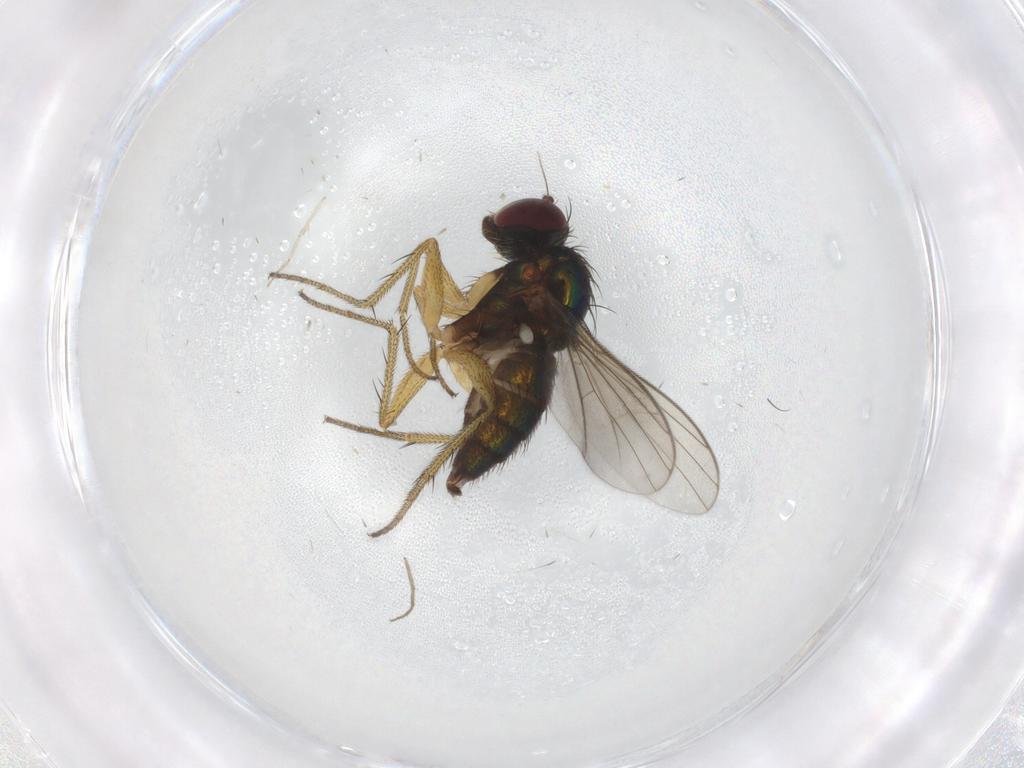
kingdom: Animalia
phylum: Arthropoda
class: Insecta
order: Diptera
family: Dolichopodidae
